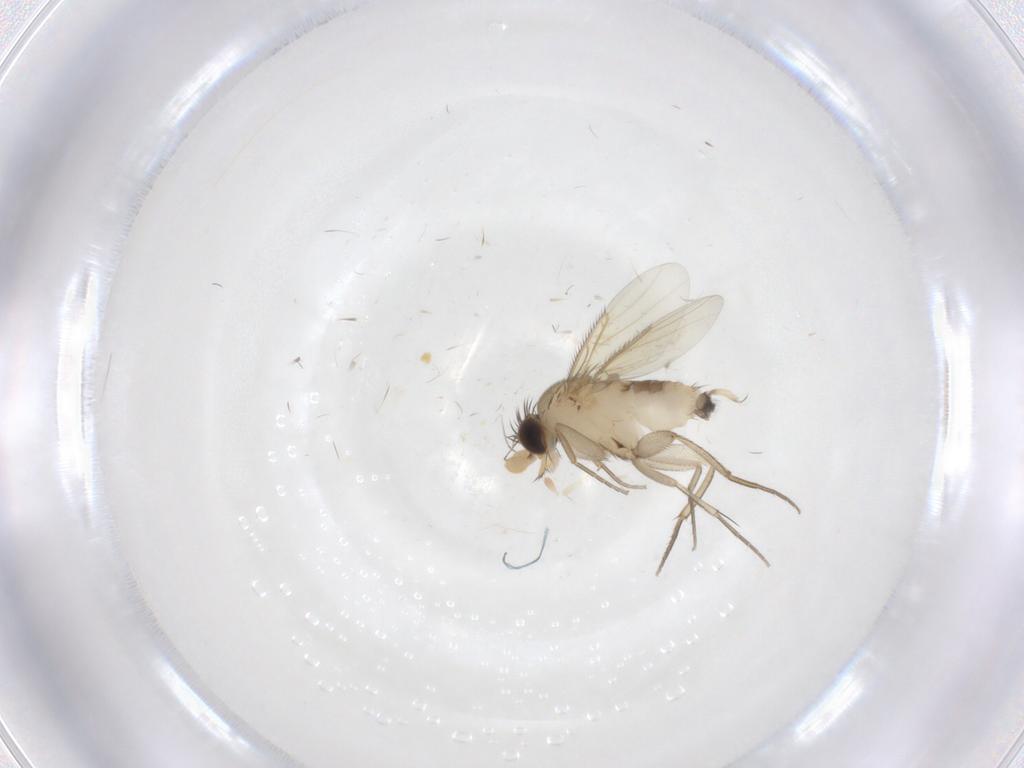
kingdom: Animalia
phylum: Arthropoda
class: Insecta
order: Diptera
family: Phoridae
